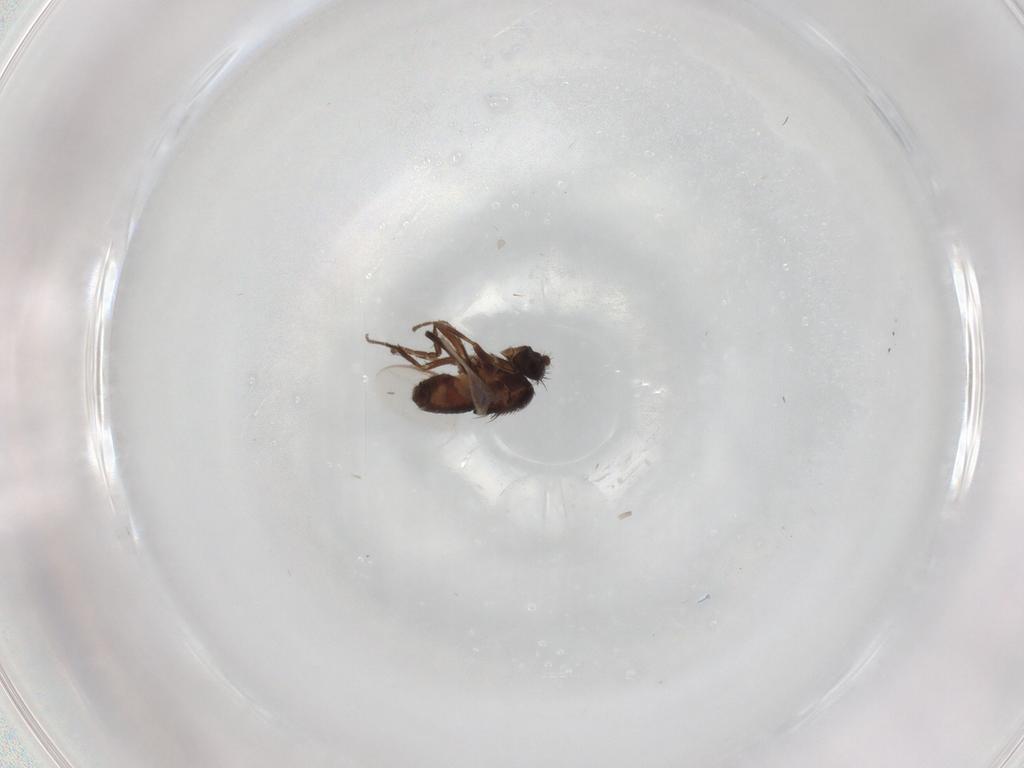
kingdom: Animalia
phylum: Arthropoda
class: Insecta
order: Diptera
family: Sphaeroceridae
